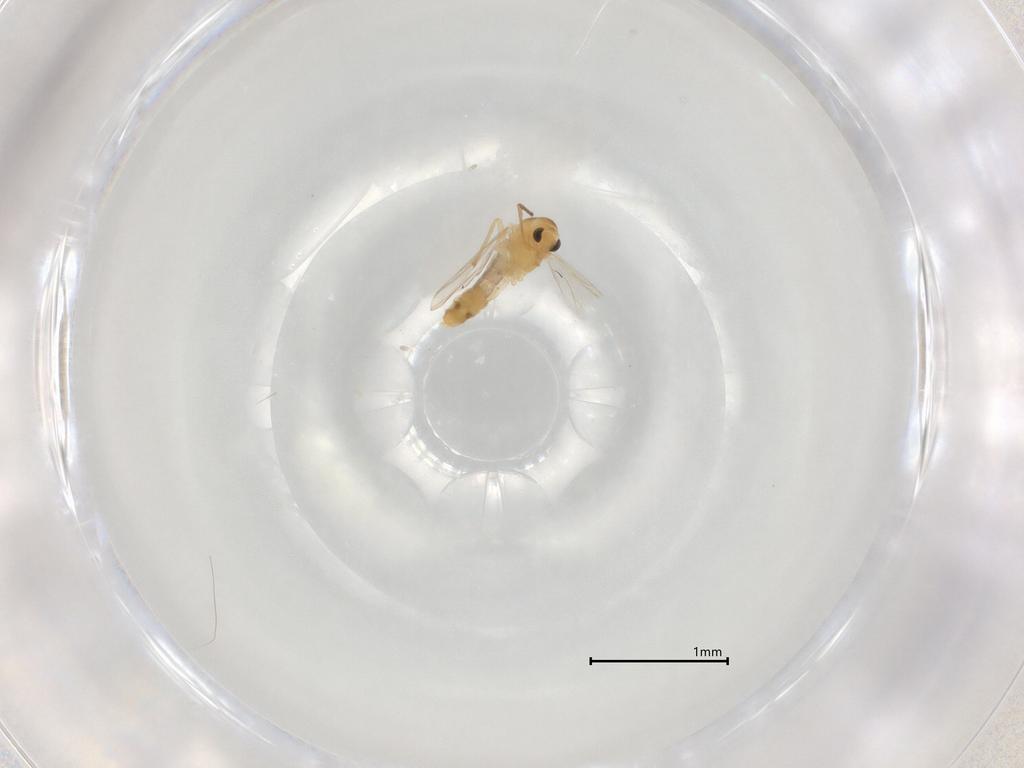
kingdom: Animalia
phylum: Arthropoda
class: Insecta
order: Diptera
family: Chironomidae
